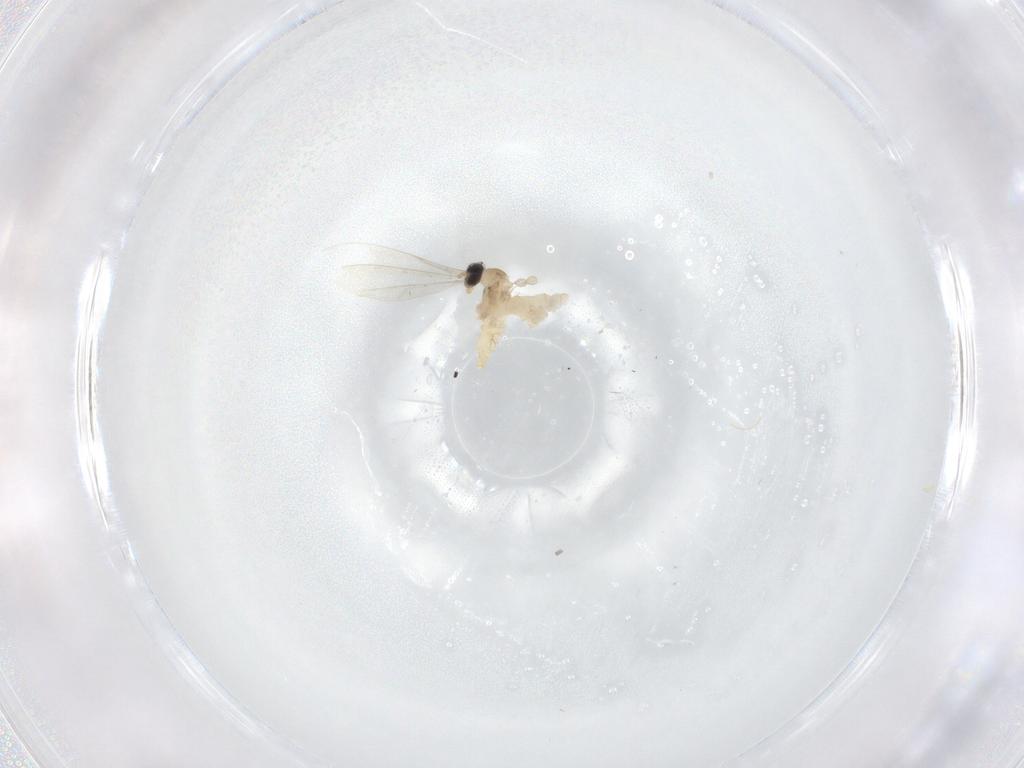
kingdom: Animalia
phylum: Arthropoda
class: Insecta
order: Diptera
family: Cecidomyiidae
